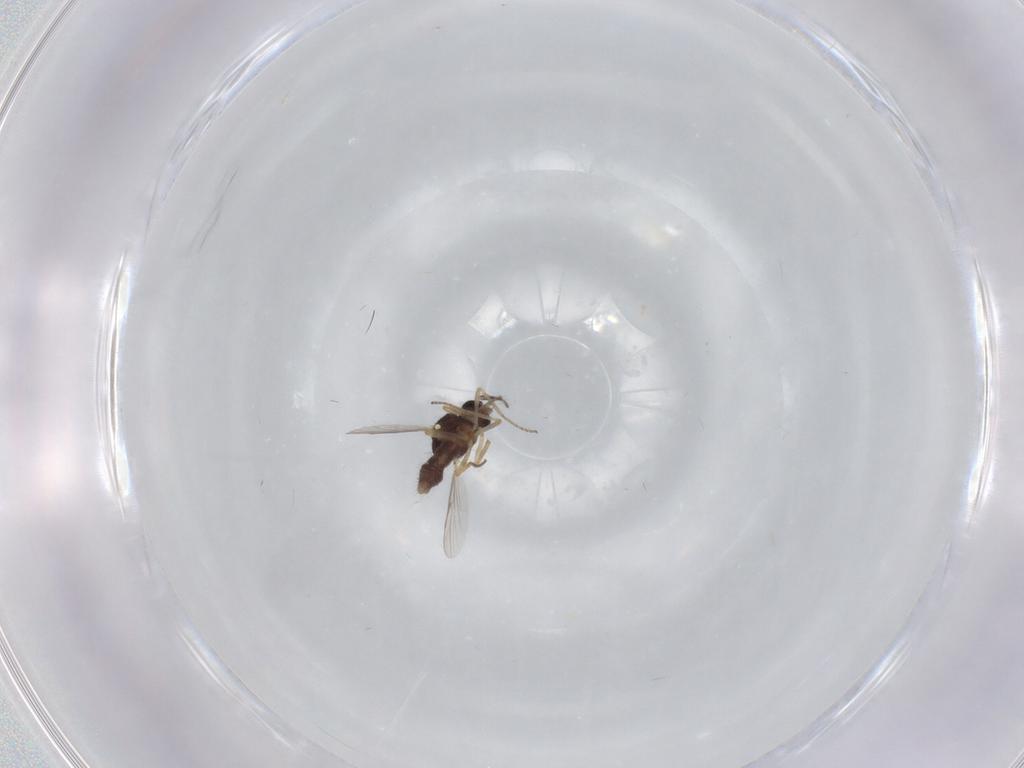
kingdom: Animalia
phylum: Arthropoda
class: Insecta
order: Diptera
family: Ceratopogonidae
